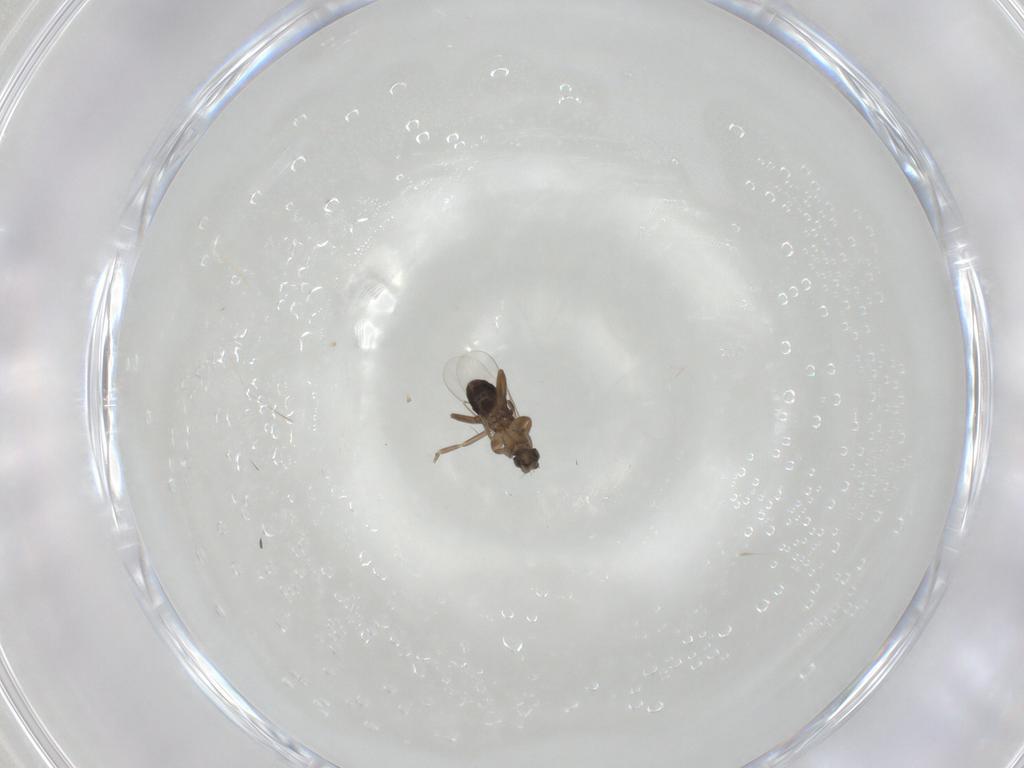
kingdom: Animalia
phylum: Arthropoda
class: Insecta
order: Diptera
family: Phoridae
